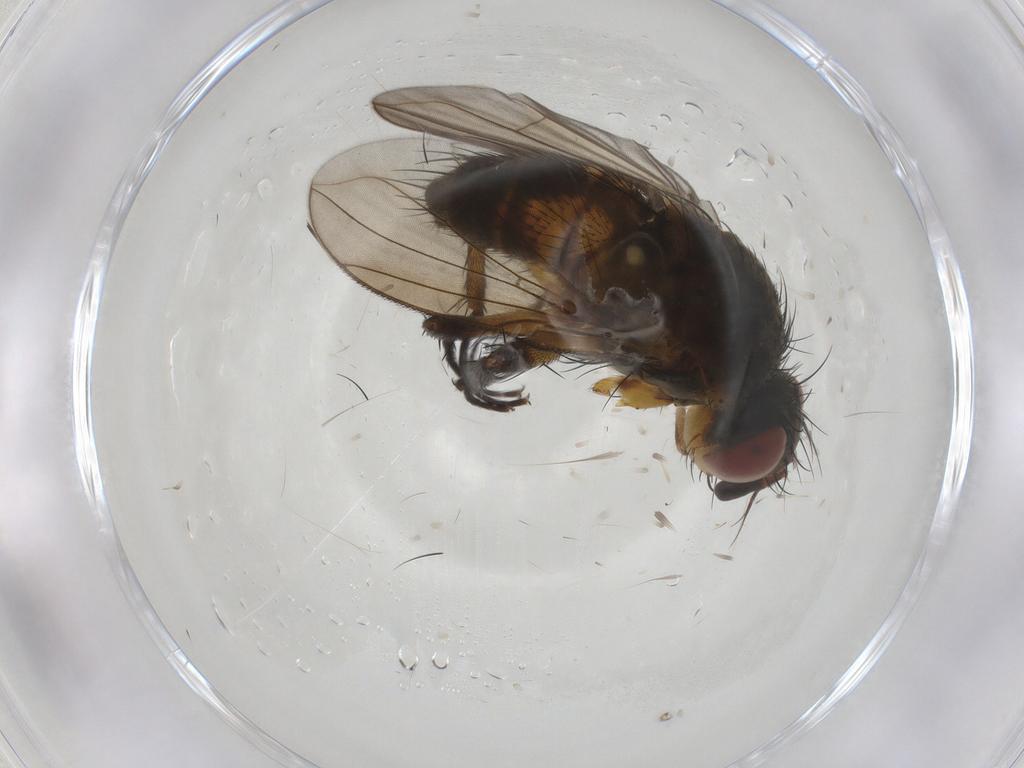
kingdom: Animalia
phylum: Arthropoda
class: Insecta
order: Diptera
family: Tachinidae
